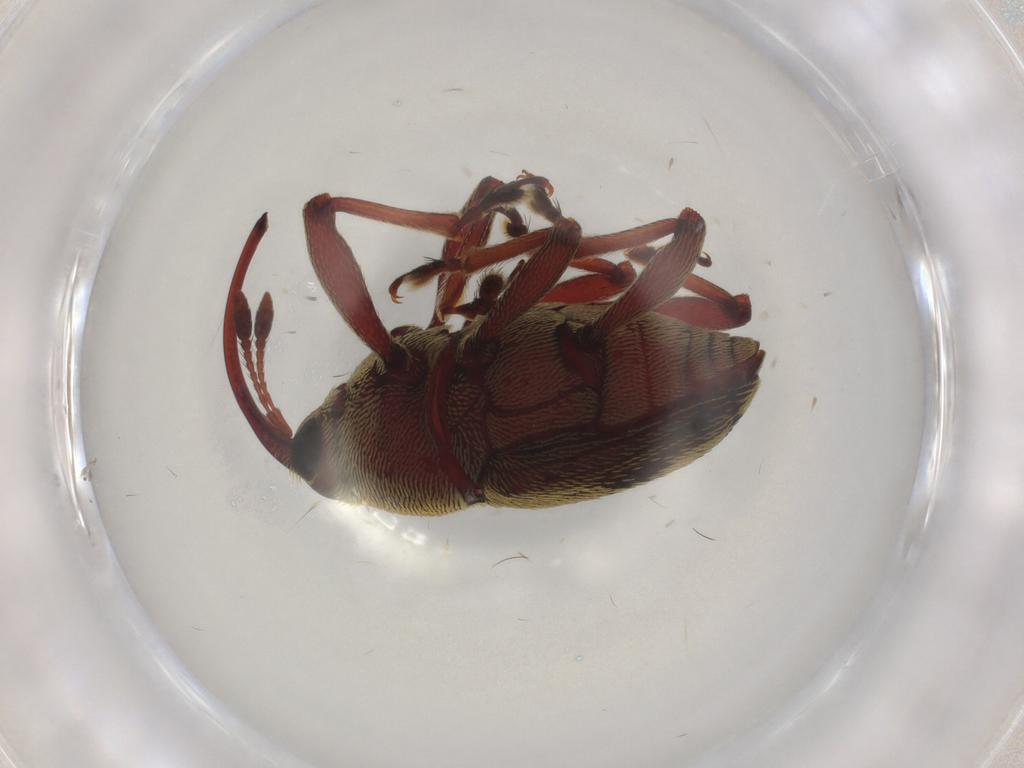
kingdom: Animalia
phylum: Arthropoda
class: Insecta
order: Coleoptera
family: Curculionidae
